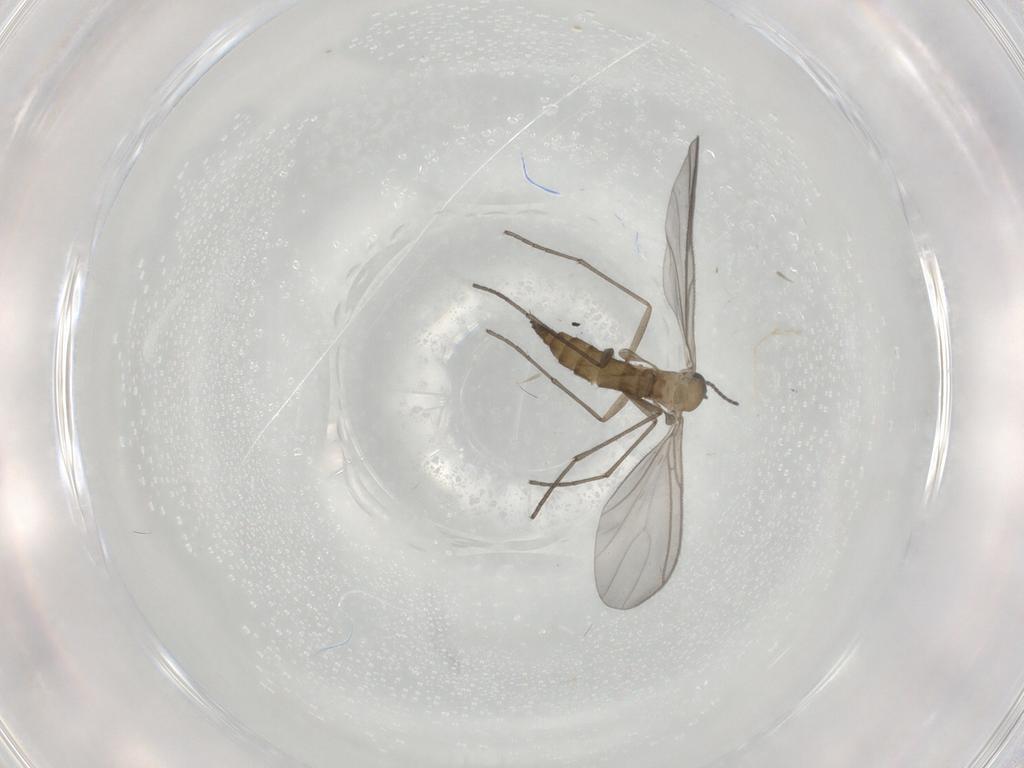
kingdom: Animalia
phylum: Arthropoda
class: Insecta
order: Diptera
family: Sciaridae
